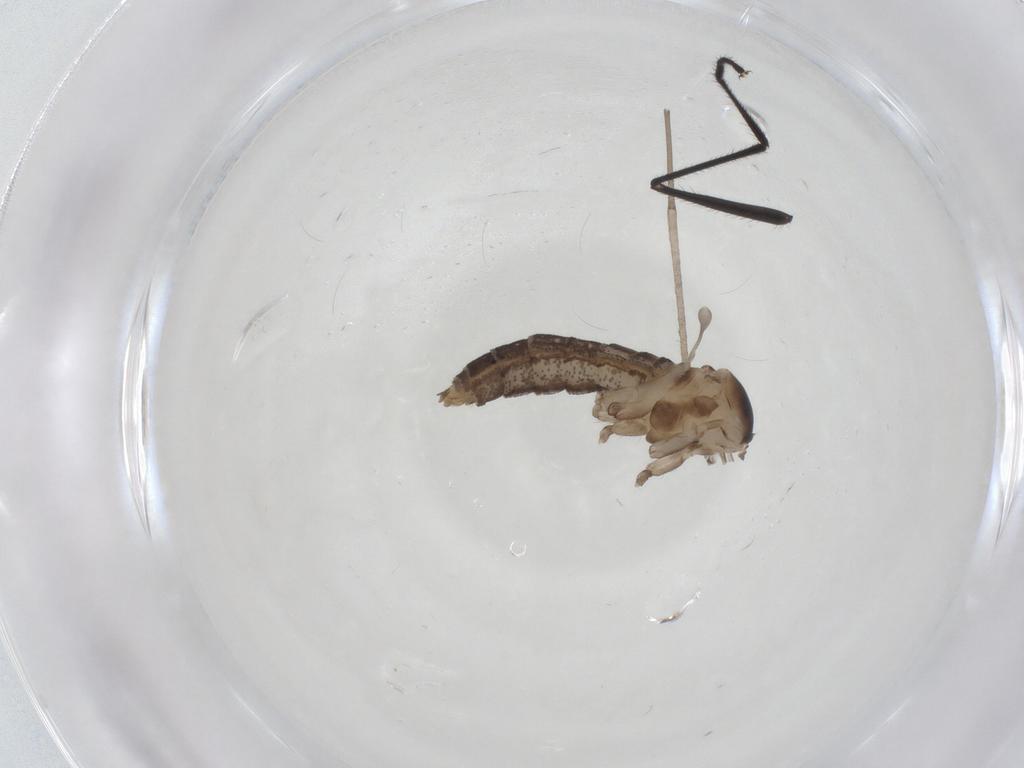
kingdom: Animalia
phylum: Arthropoda
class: Insecta
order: Diptera
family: Cecidomyiidae
